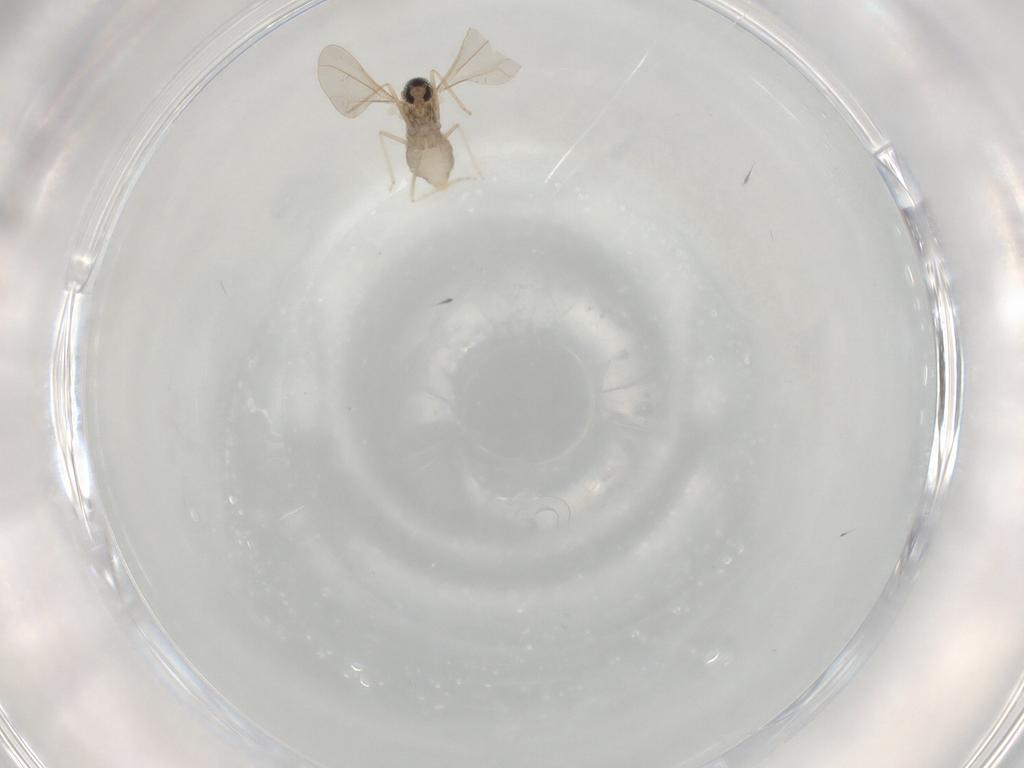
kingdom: Animalia
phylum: Arthropoda
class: Insecta
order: Diptera
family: Cecidomyiidae
